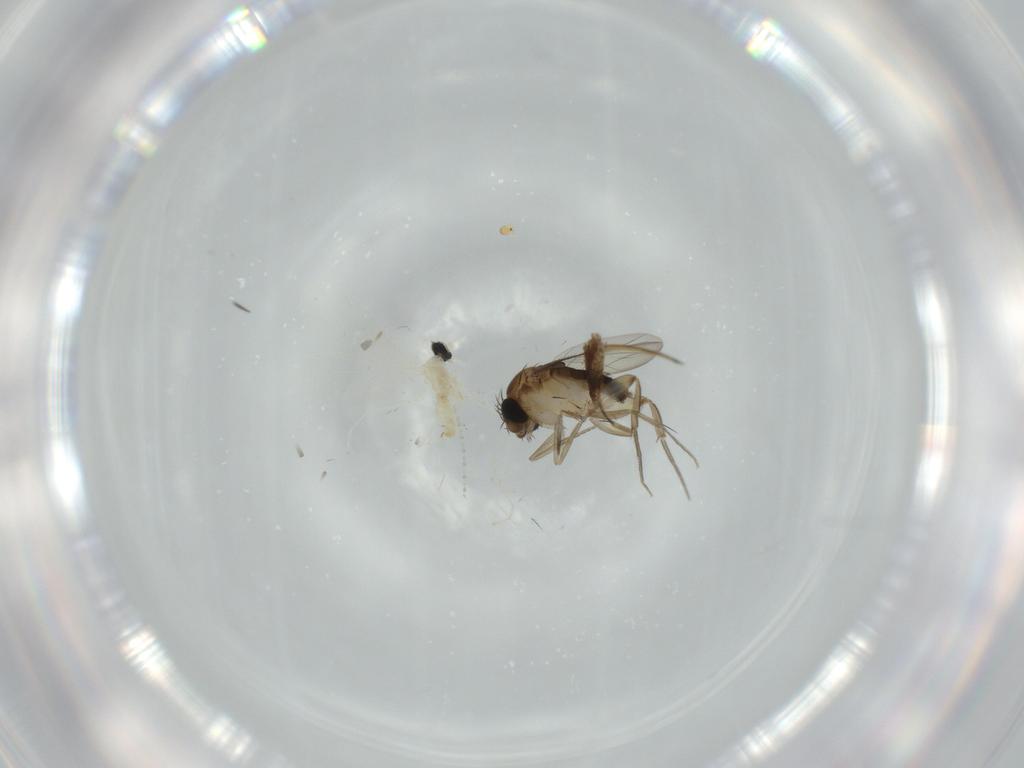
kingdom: Animalia
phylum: Arthropoda
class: Insecta
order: Diptera
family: Cecidomyiidae
